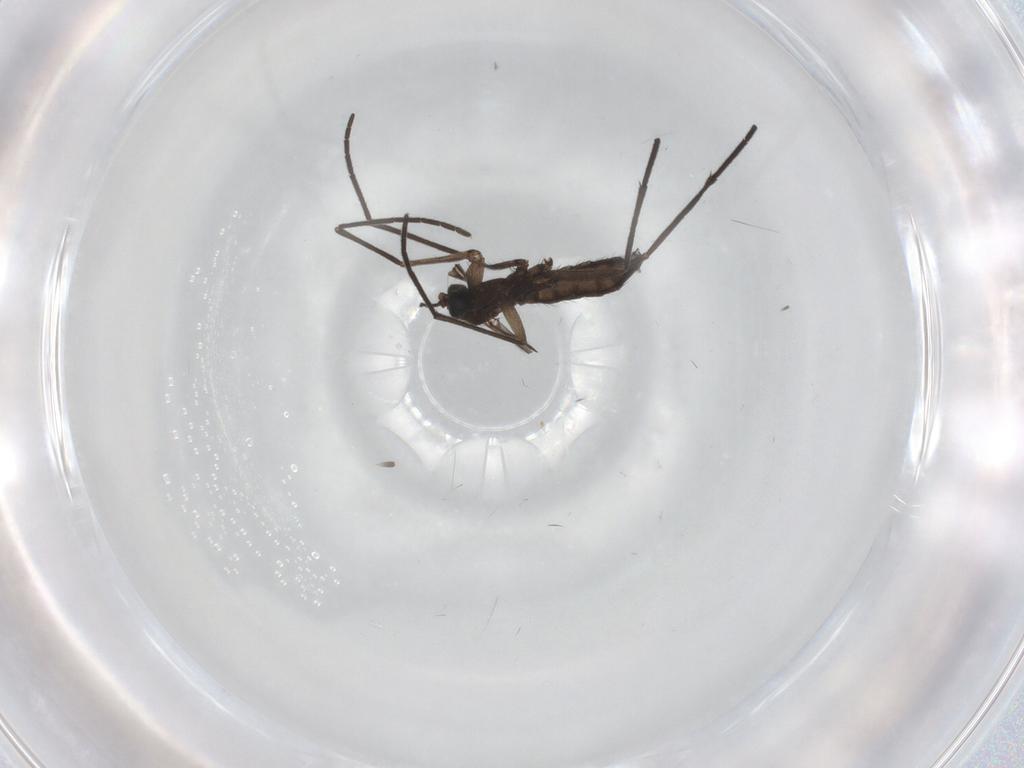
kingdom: Animalia
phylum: Arthropoda
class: Insecta
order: Diptera
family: Sciaridae
